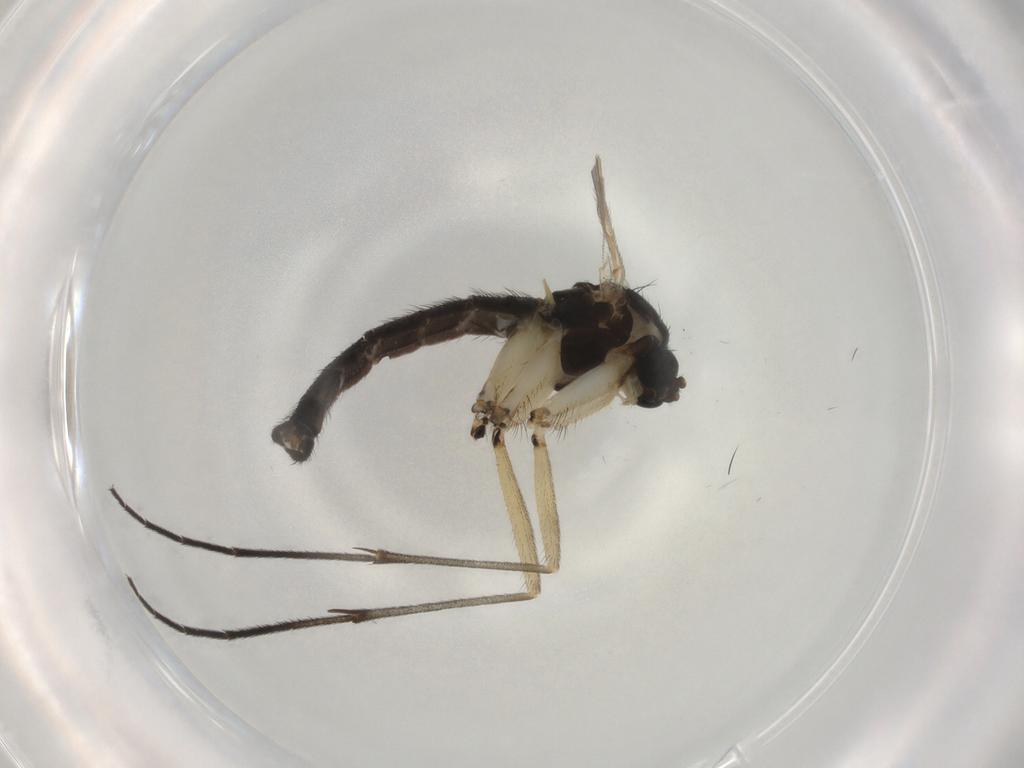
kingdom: Animalia
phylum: Arthropoda
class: Insecta
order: Diptera
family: Sciaridae
